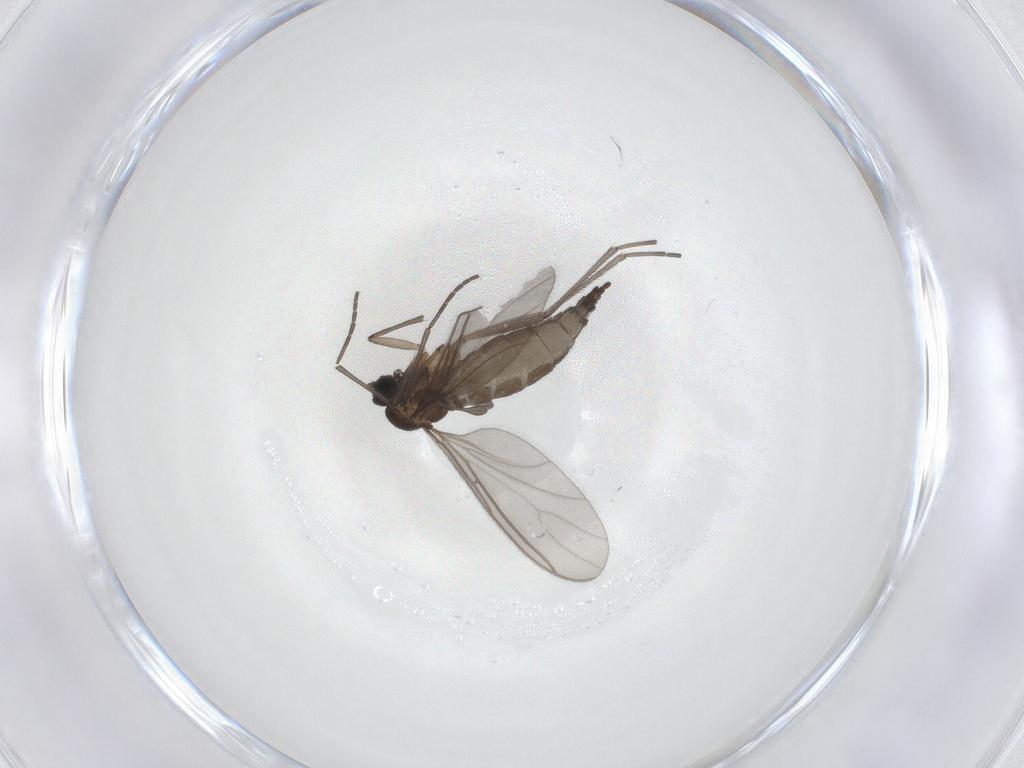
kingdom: Animalia
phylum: Arthropoda
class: Insecta
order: Diptera
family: Sciaridae
